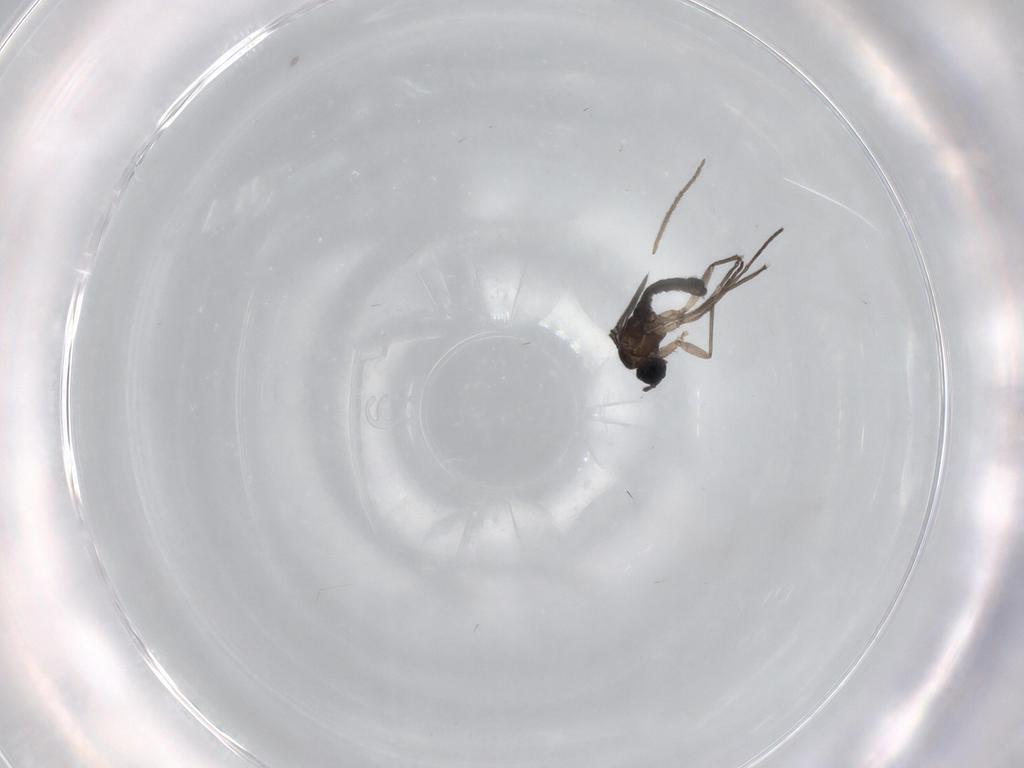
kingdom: Animalia
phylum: Arthropoda
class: Insecta
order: Diptera
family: Sciaridae
